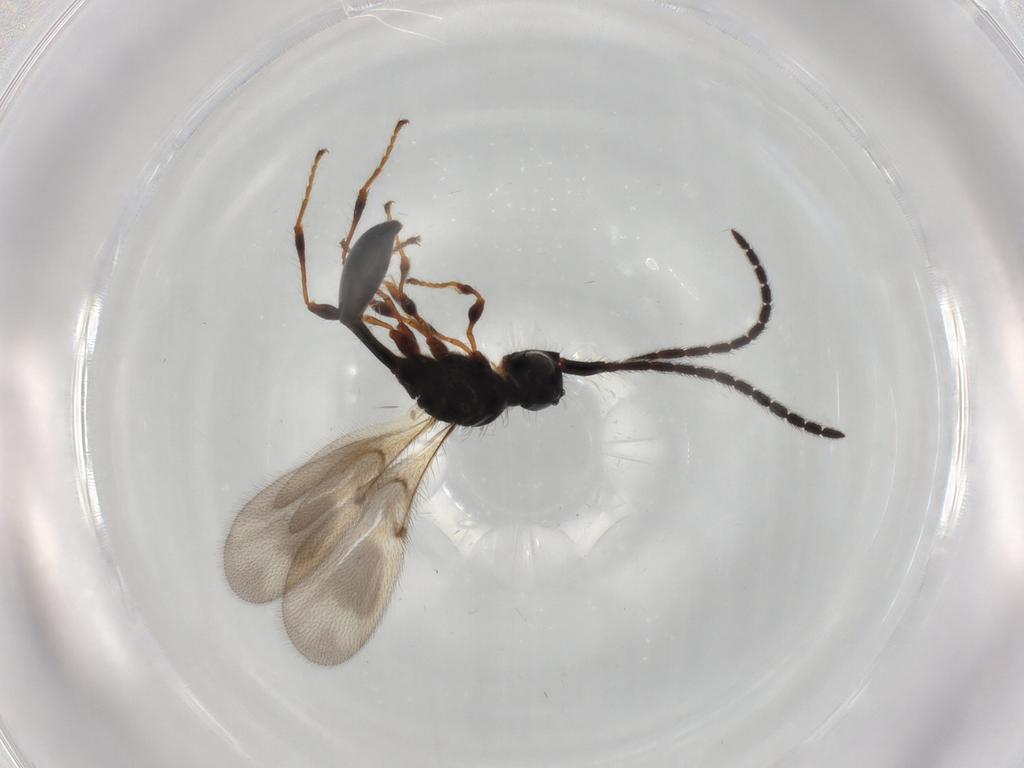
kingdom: Animalia
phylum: Arthropoda
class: Insecta
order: Hymenoptera
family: Diapriidae
